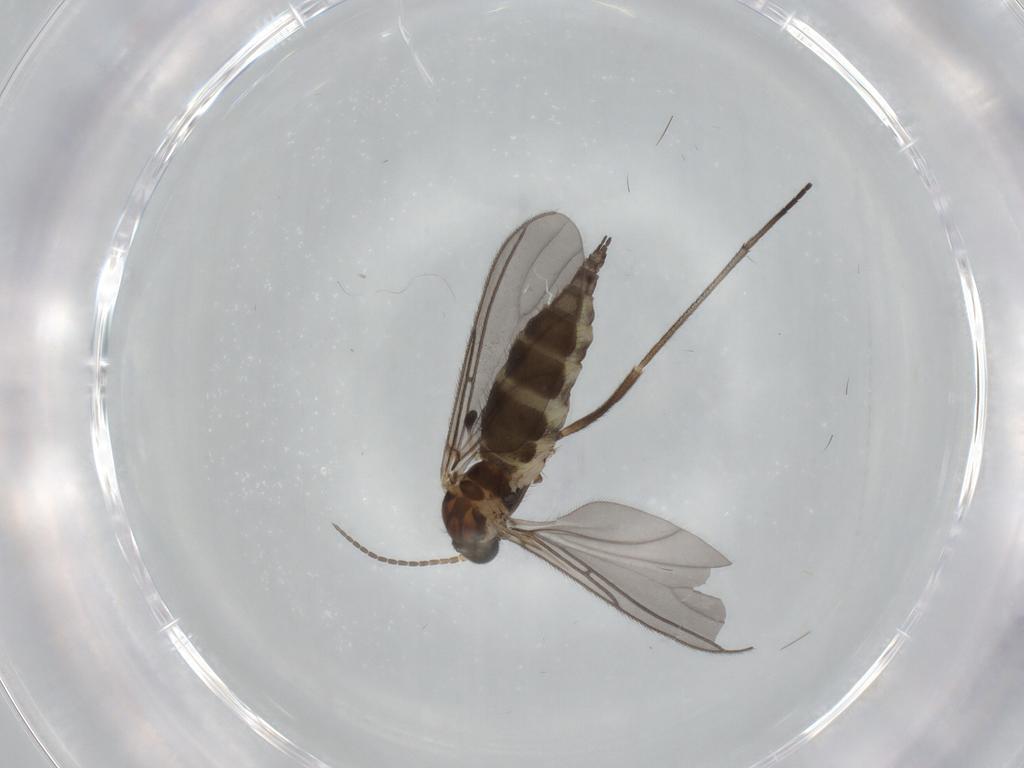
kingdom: Animalia
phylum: Arthropoda
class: Insecta
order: Diptera
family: Sciaridae
